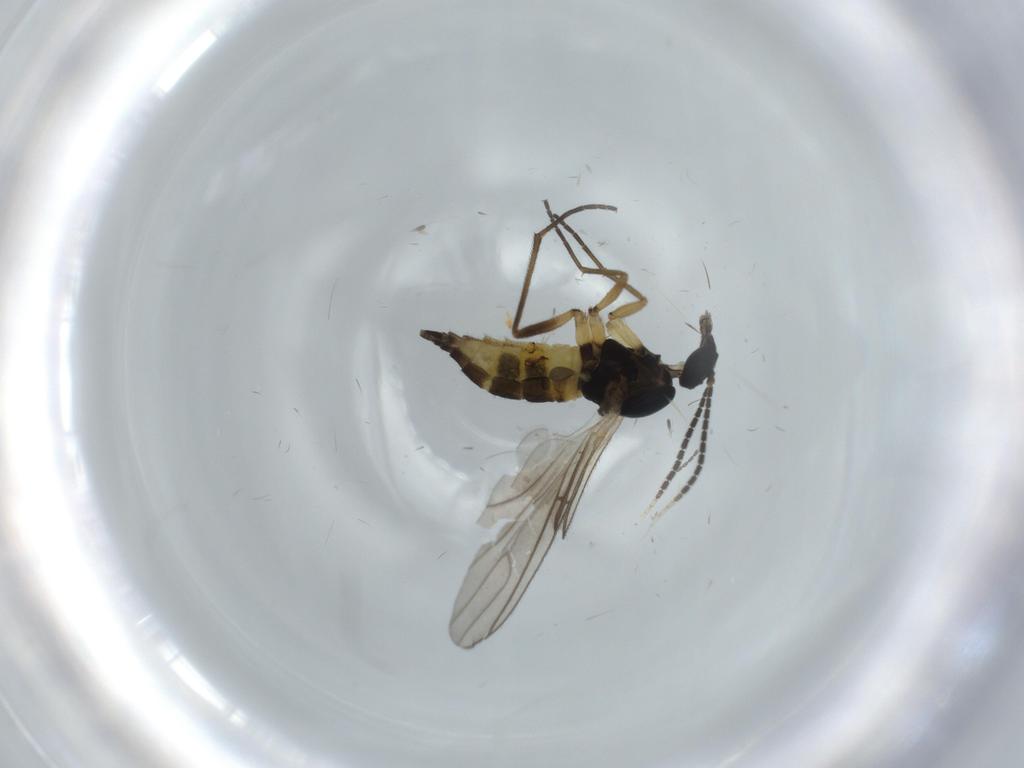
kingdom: Animalia
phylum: Arthropoda
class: Insecta
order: Diptera
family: Sciaridae
